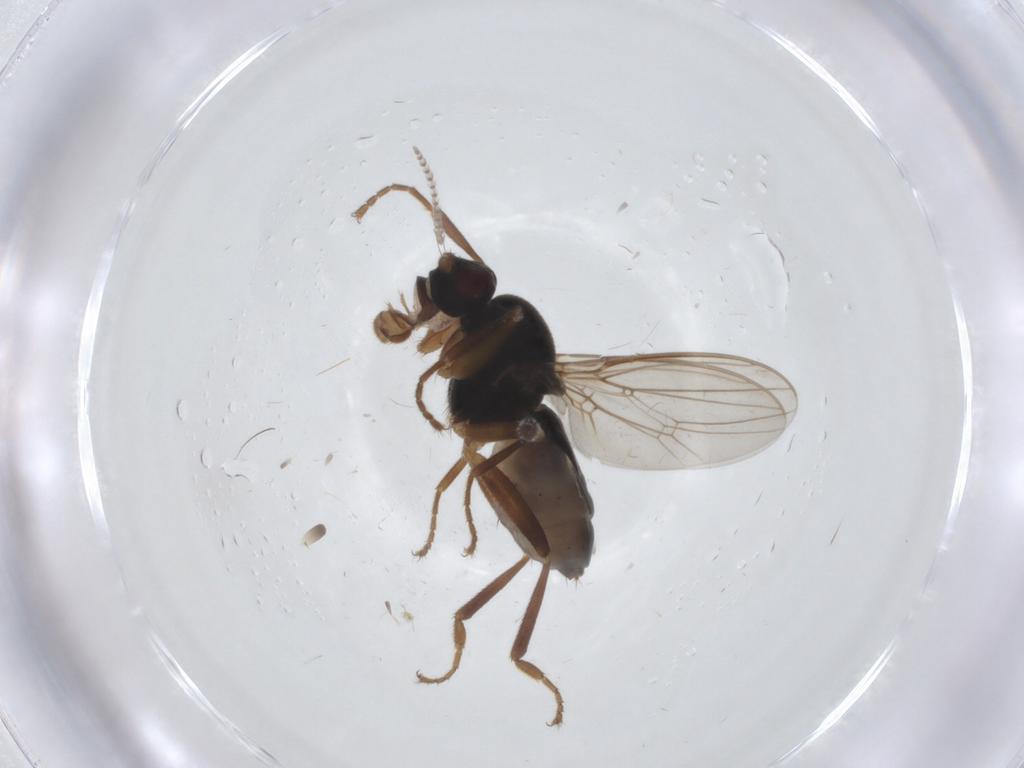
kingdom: Animalia
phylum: Arthropoda
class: Insecta
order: Diptera
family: Sphaeroceridae
